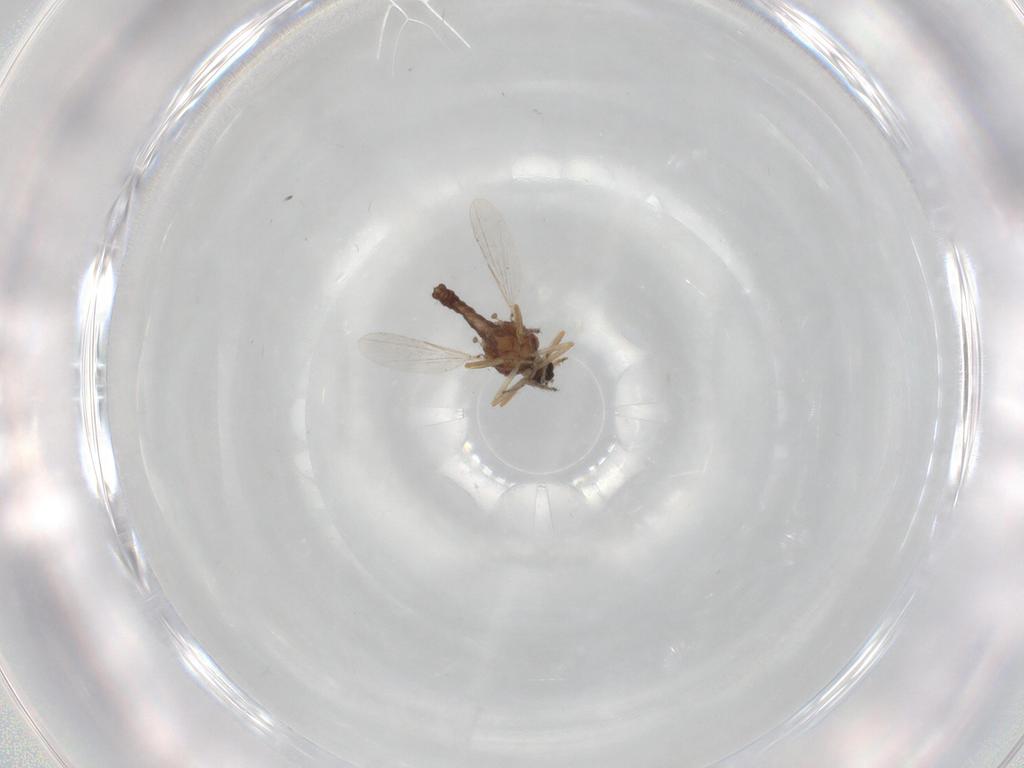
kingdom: Animalia
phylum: Arthropoda
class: Insecta
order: Diptera
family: Ceratopogonidae
